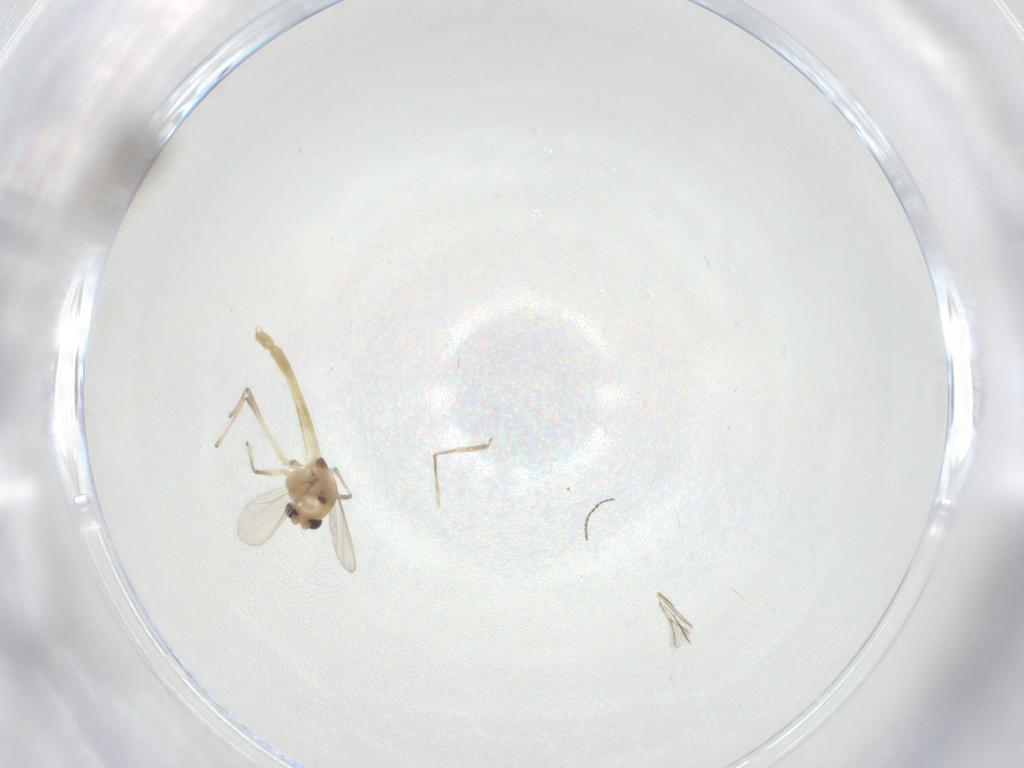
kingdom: Animalia
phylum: Arthropoda
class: Insecta
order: Diptera
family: Chironomidae
